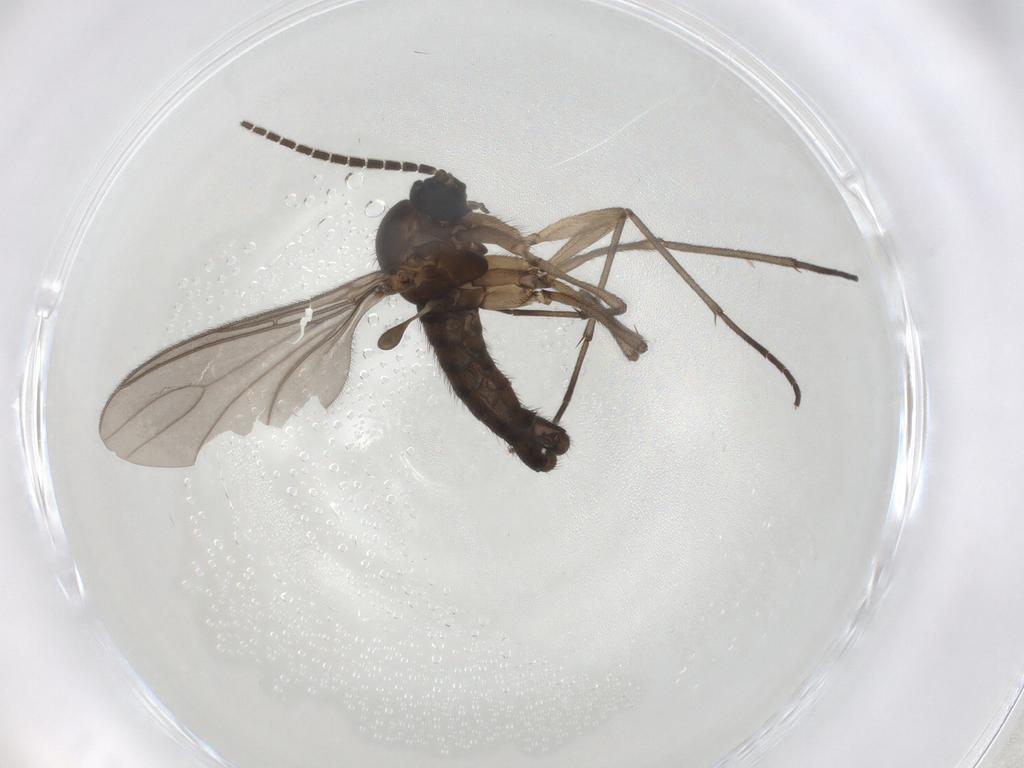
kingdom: Animalia
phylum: Arthropoda
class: Insecta
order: Diptera
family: Sciaridae
